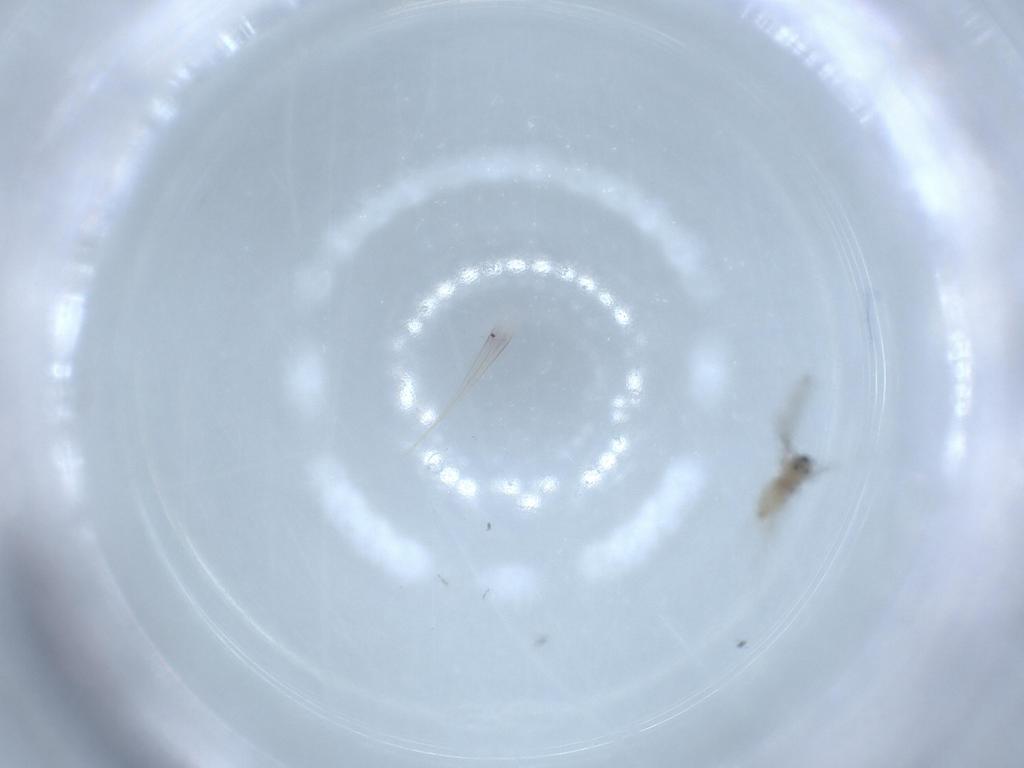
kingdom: Animalia
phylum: Arthropoda
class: Insecta
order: Diptera
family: Cecidomyiidae
